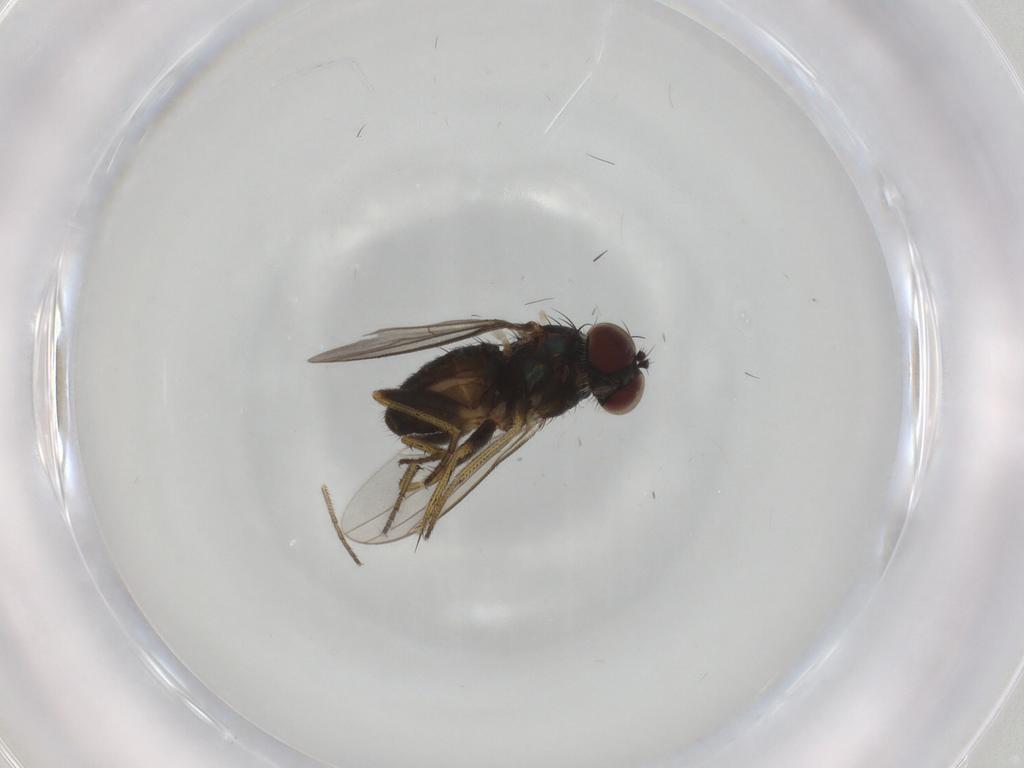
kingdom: Animalia
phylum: Arthropoda
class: Insecta
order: Diptera
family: Dolichopodidae
